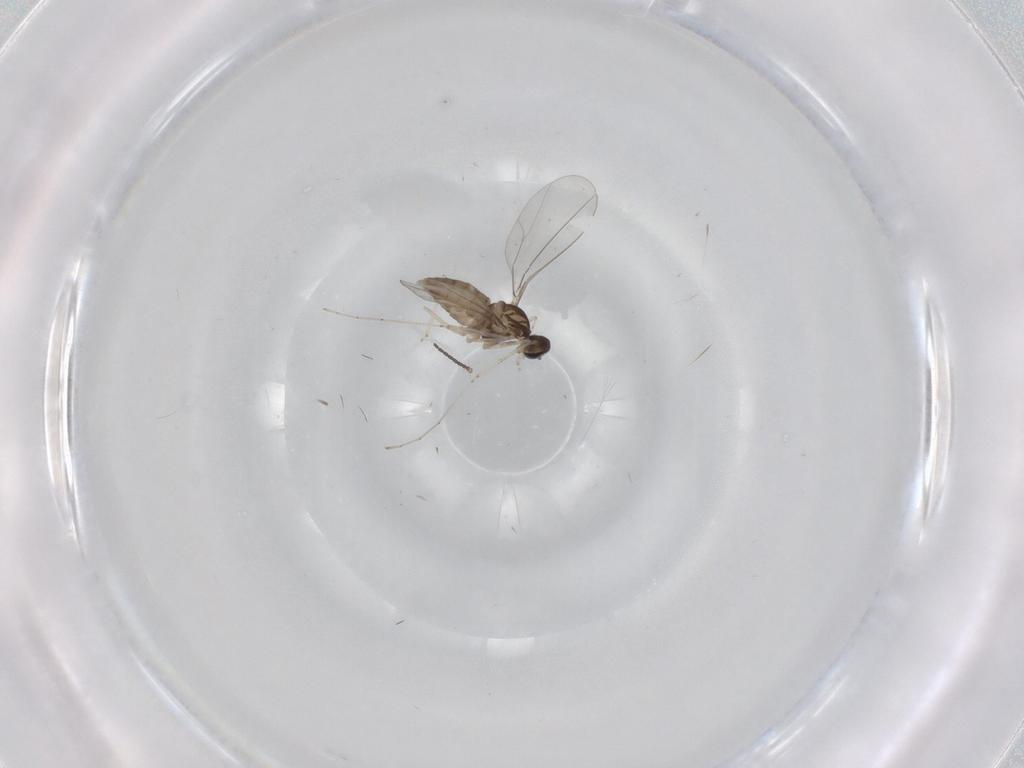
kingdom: Animalia
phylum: Arthropoda
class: Insecta
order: Diptera
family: Cecidomyiidae
